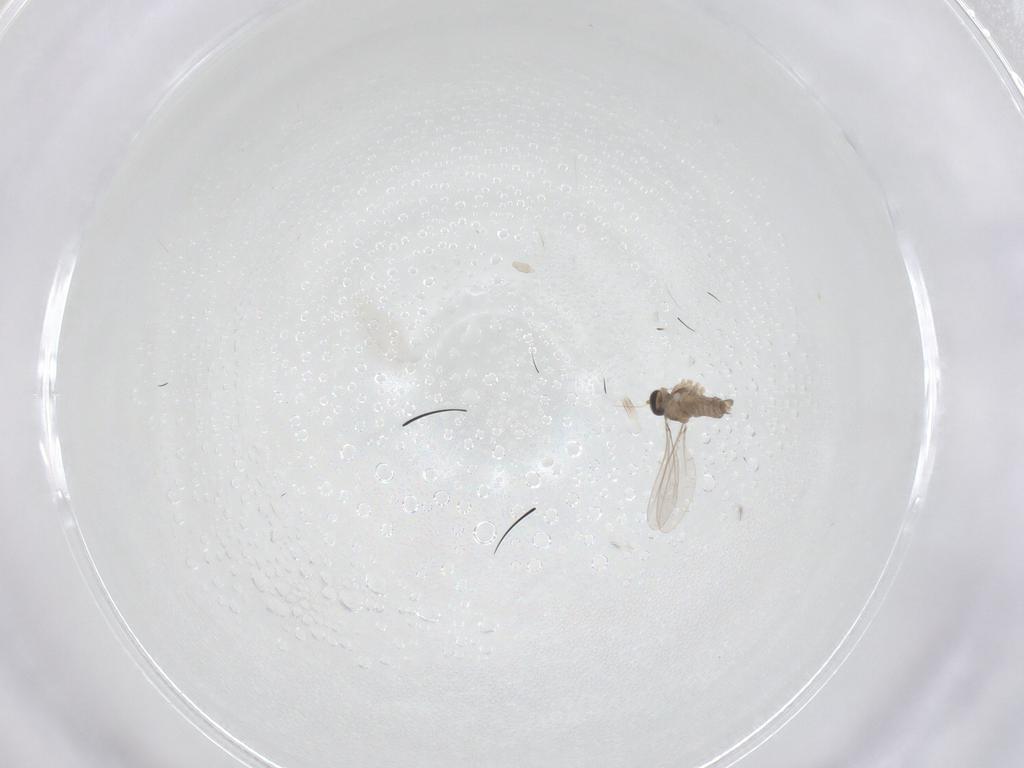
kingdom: Animalia
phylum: Arthropoda
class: Insecta
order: Diptera
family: Cecidomyiidae
